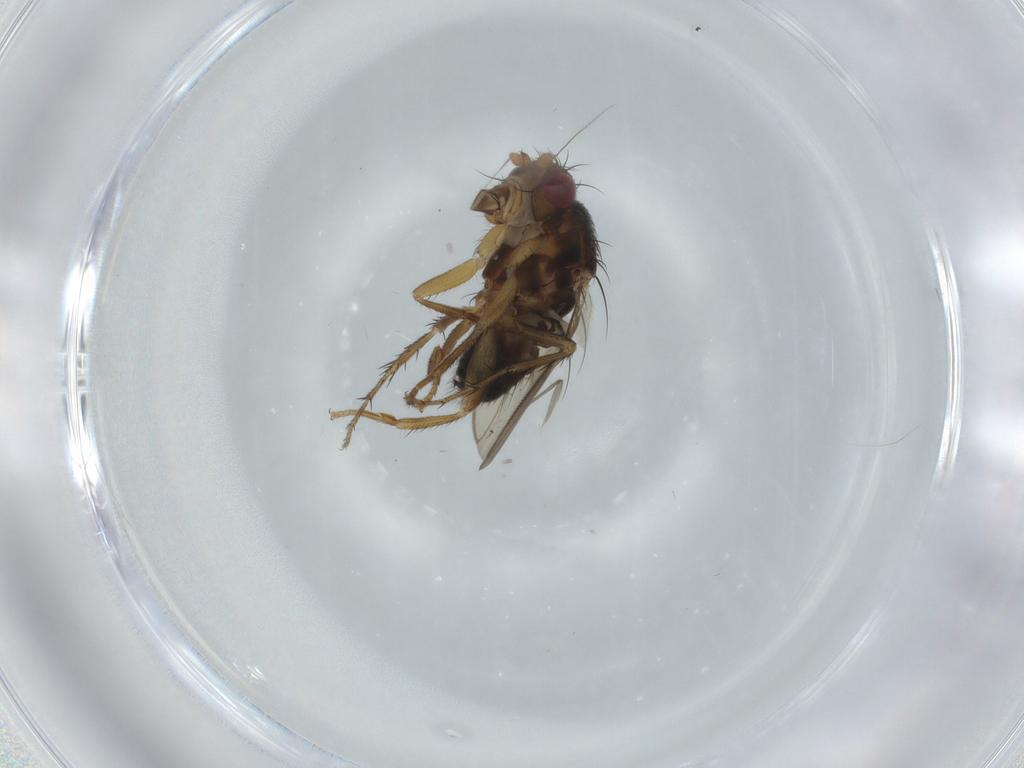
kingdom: Animalia
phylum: Arthropoda
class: Insecta
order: Diptera
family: Sphaeroceridae
